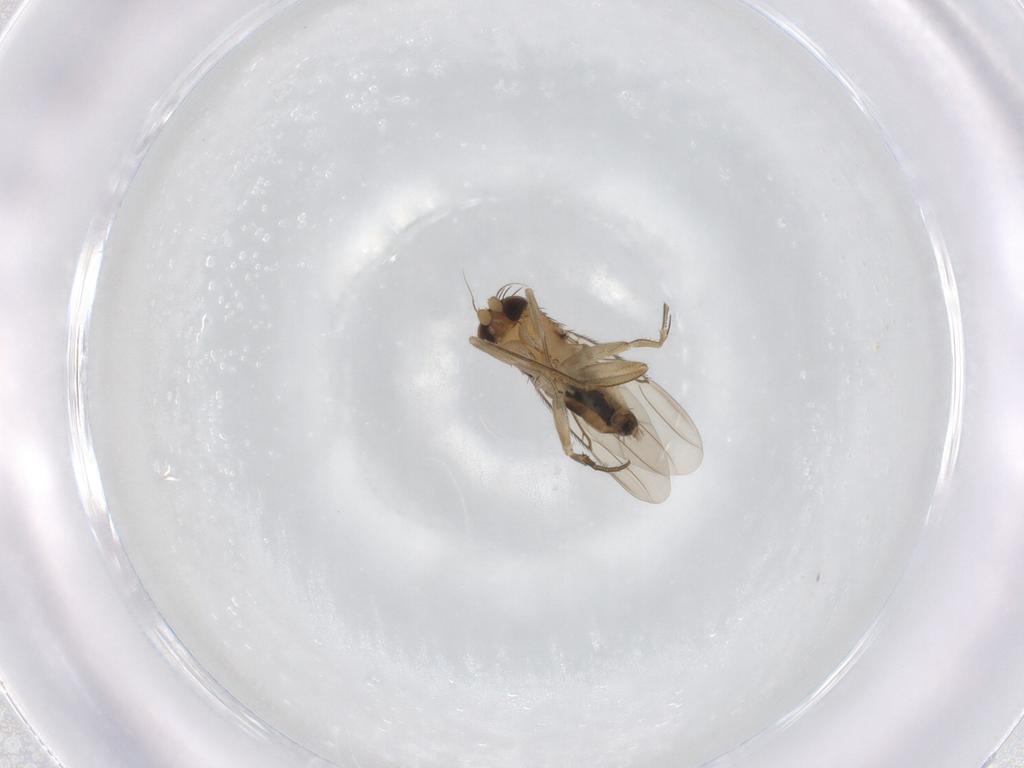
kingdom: Animalia
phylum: Arthropoda
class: Insecta
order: Diptera
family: Phoridae
